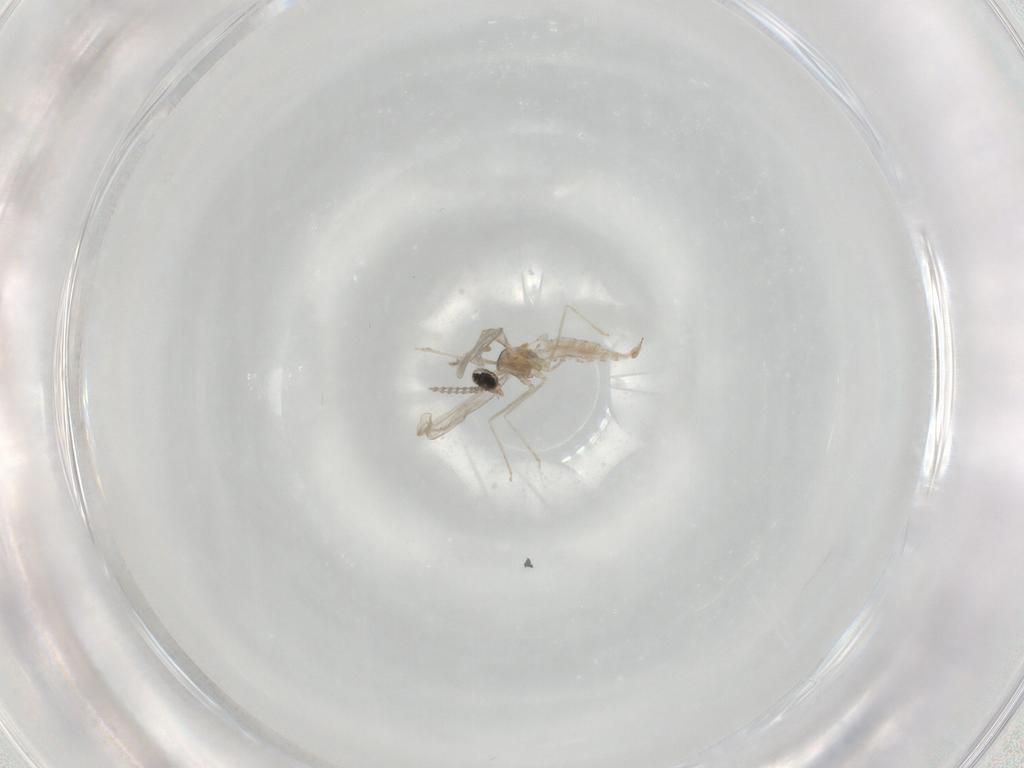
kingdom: Animalia
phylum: Arthropoda
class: Insecta
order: Diptera
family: Cecidomyiidae
